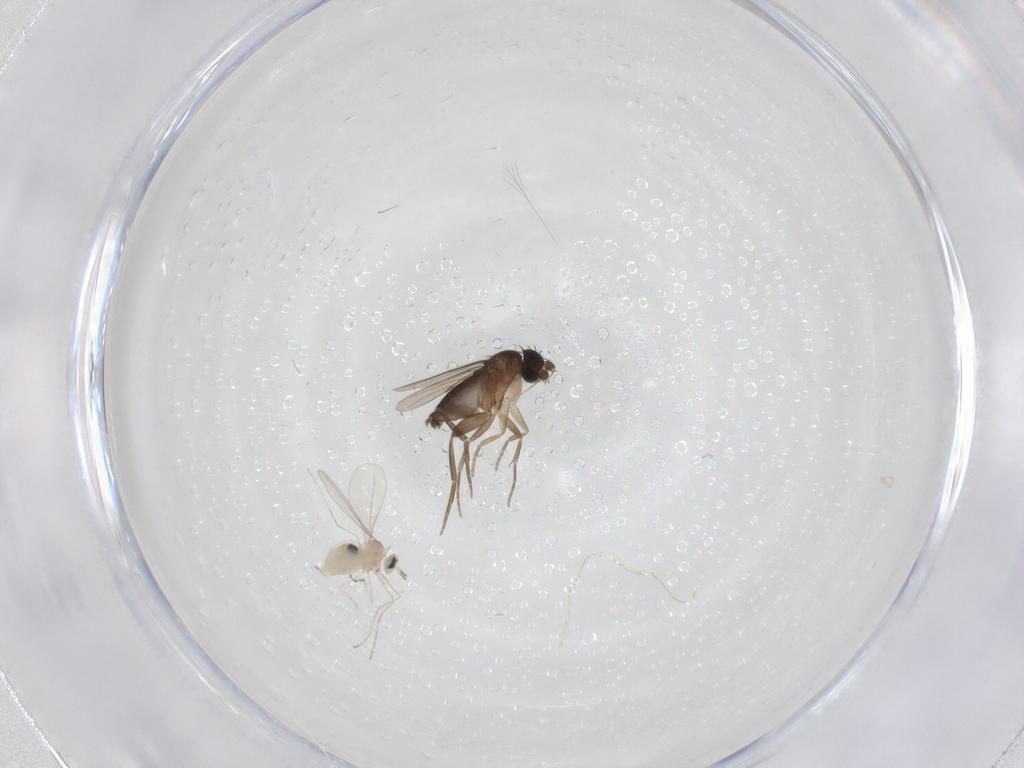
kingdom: Animalia
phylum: Arthropoda
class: Insecta
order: Diptera
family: Phoridae
